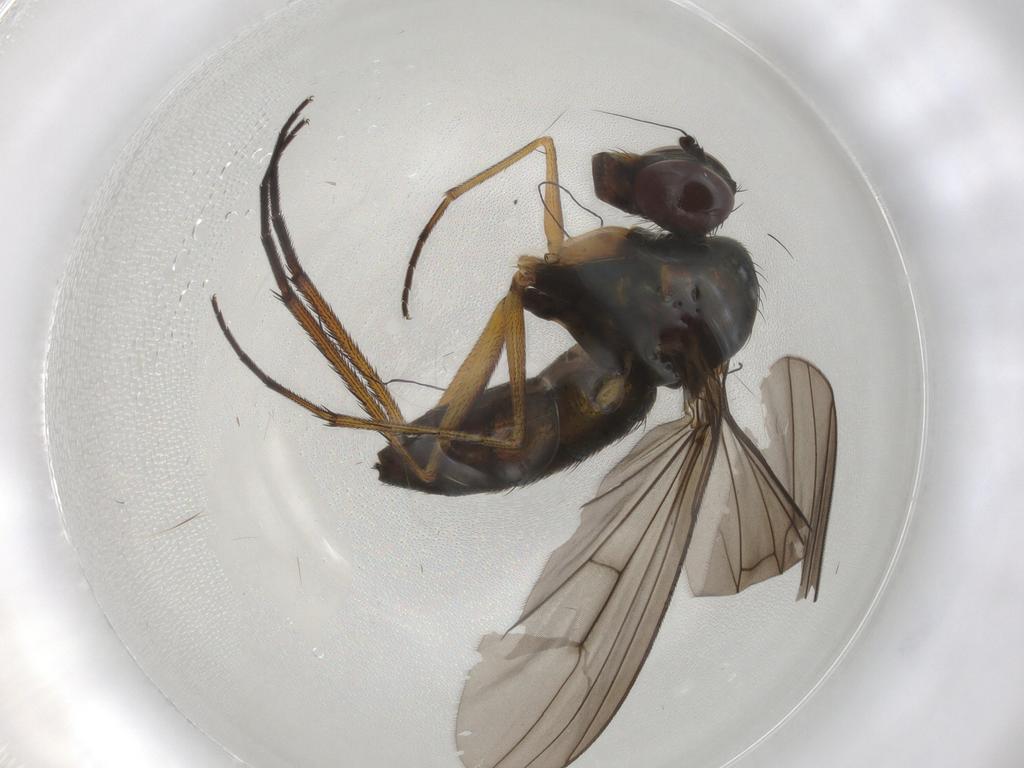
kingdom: Animalia
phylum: Arthropoda
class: Insecta
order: Diptera
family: Dolichopodidae
